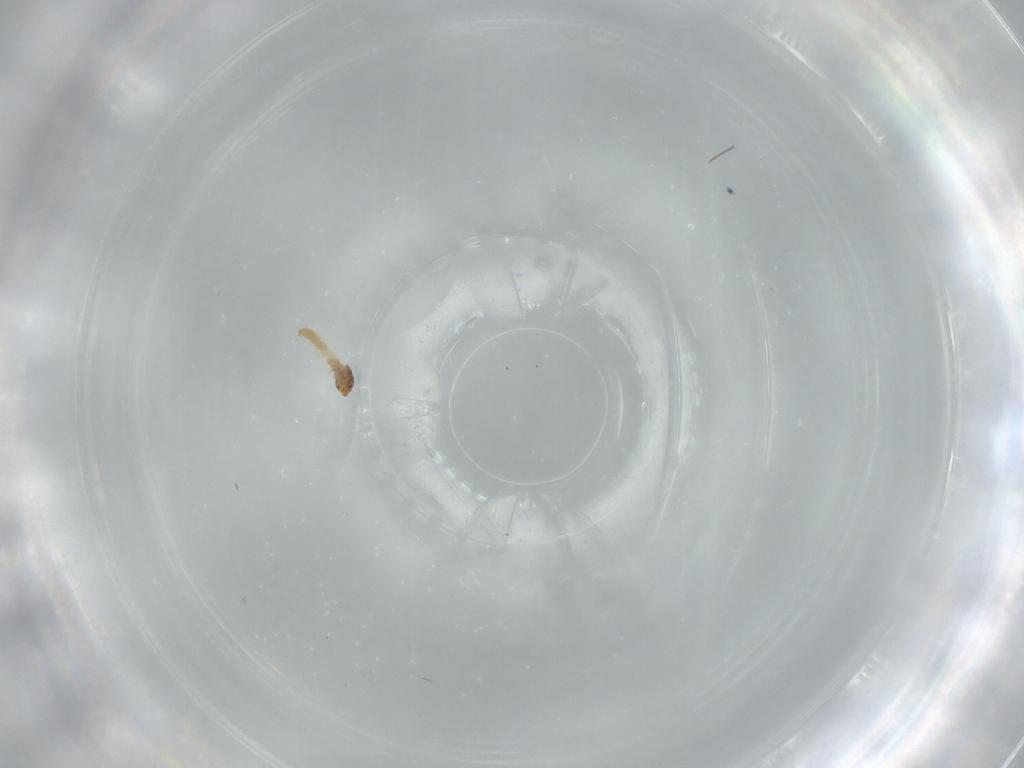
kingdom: Animalia
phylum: Arthropoda
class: Insecta
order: Lepidoptera
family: Blastobasidae
